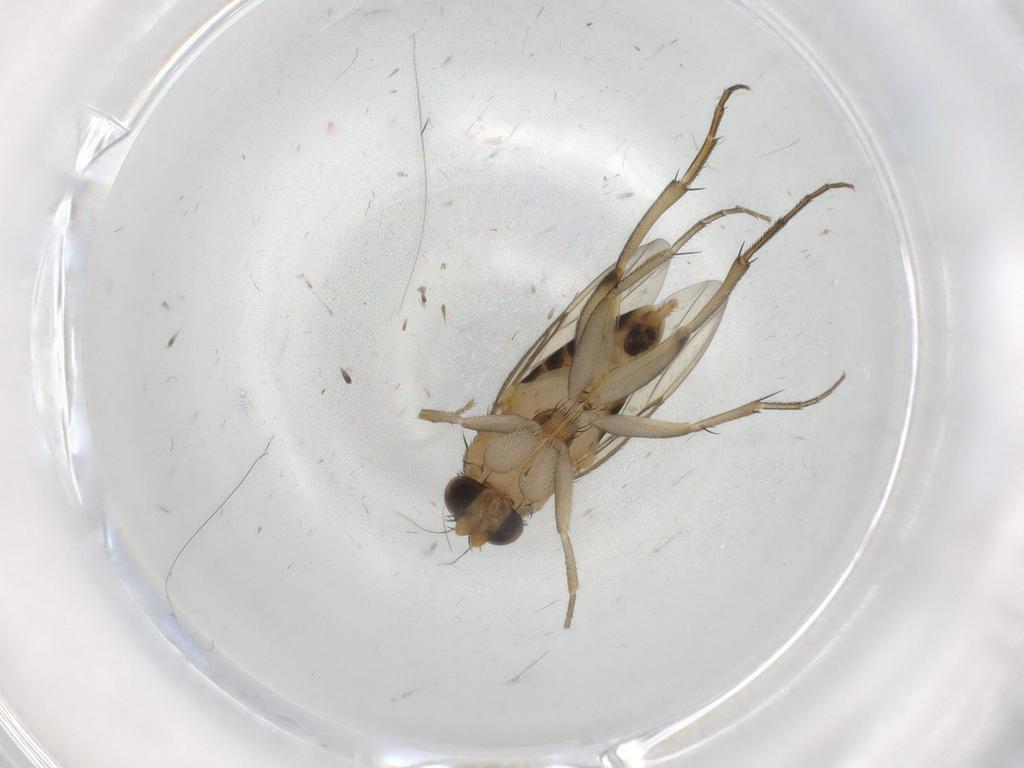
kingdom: Animalia
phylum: Arthropoda
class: Insecta
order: Diptera
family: Phoridae
